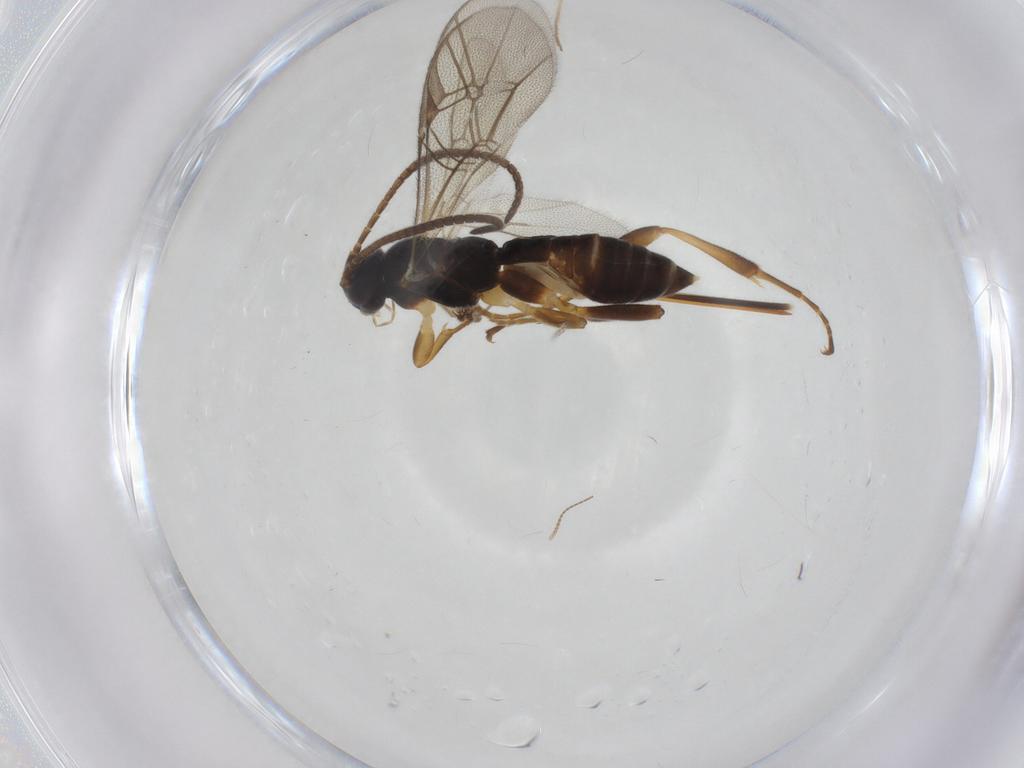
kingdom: Animalia
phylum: Arthropoda
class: Insecta
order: Hymenoptera
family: Ichneumonidae
